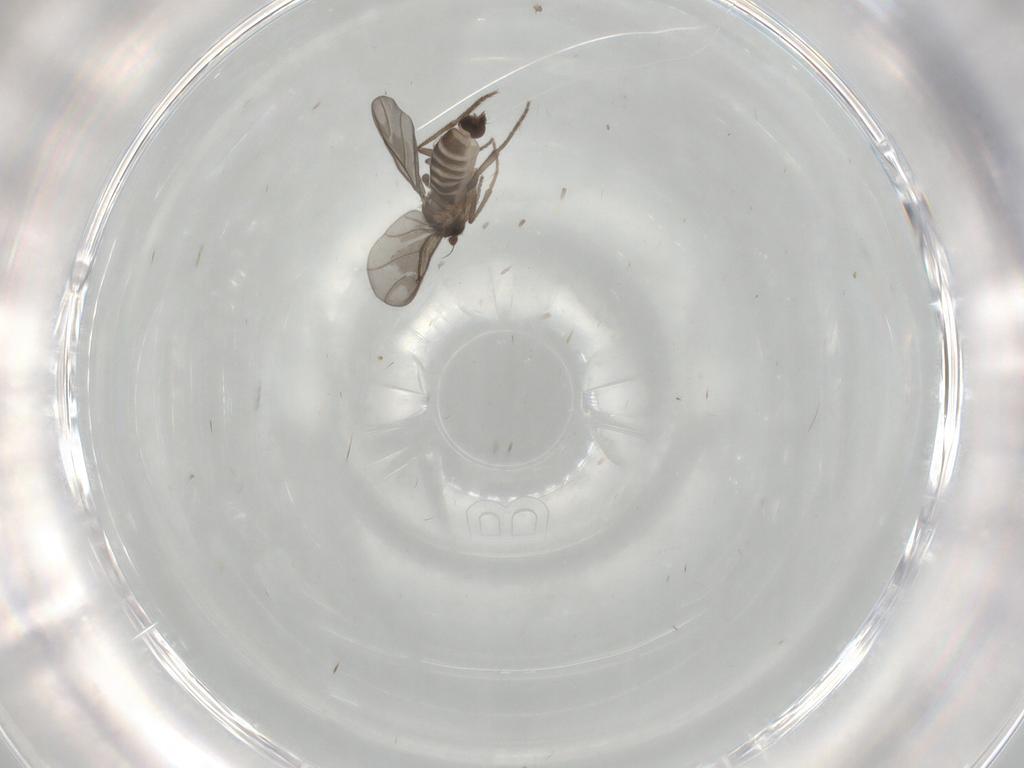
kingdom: Animalia
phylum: Arthropoda
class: Insecta
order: Diptera
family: Phoridae
